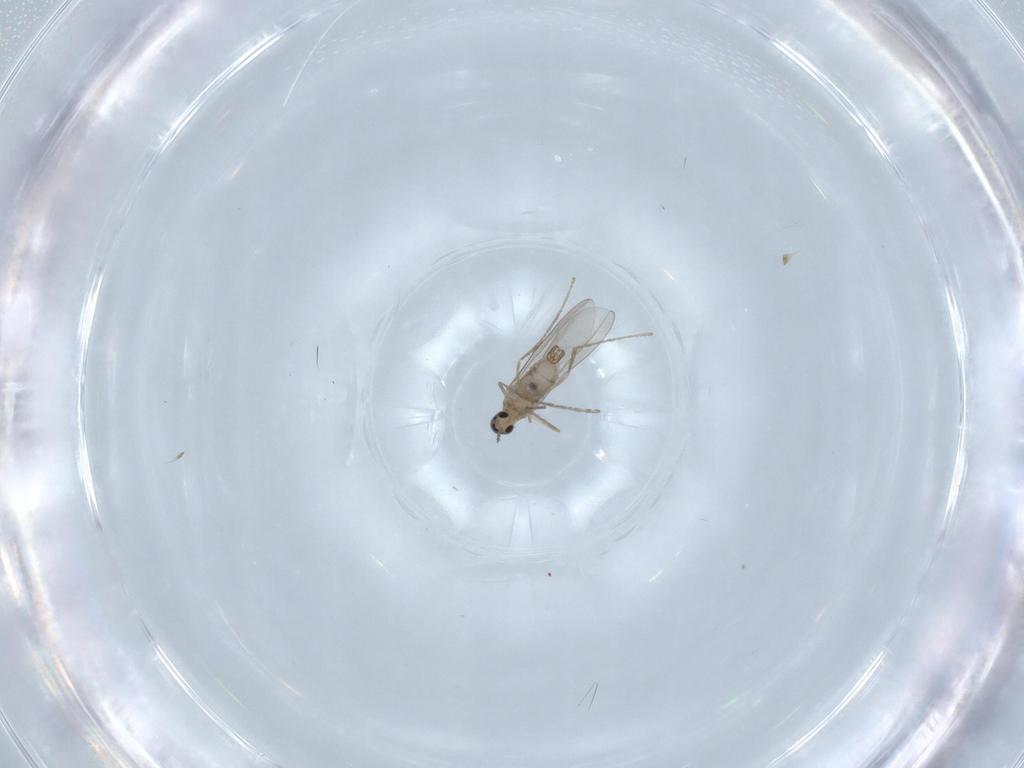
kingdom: Animalia
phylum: Arthropoda
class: Insecta
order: Diptera
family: Cecidomyiidae
